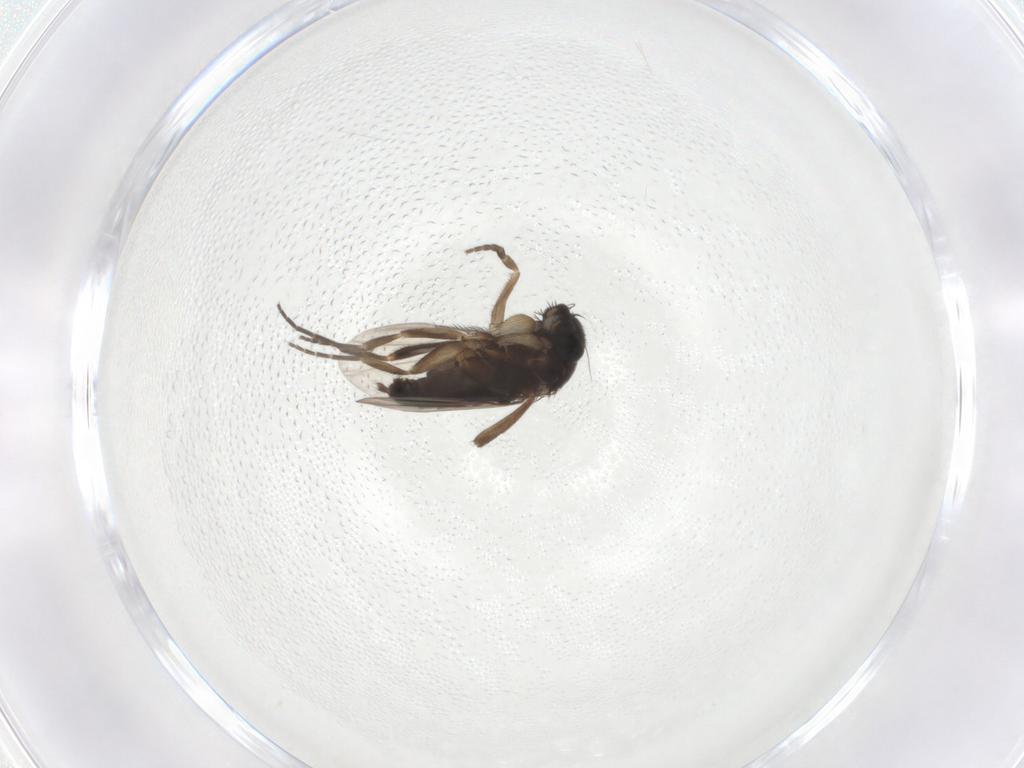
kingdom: Animalia
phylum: Arthropoda
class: Insecta
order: Diptera
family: Phoridae
